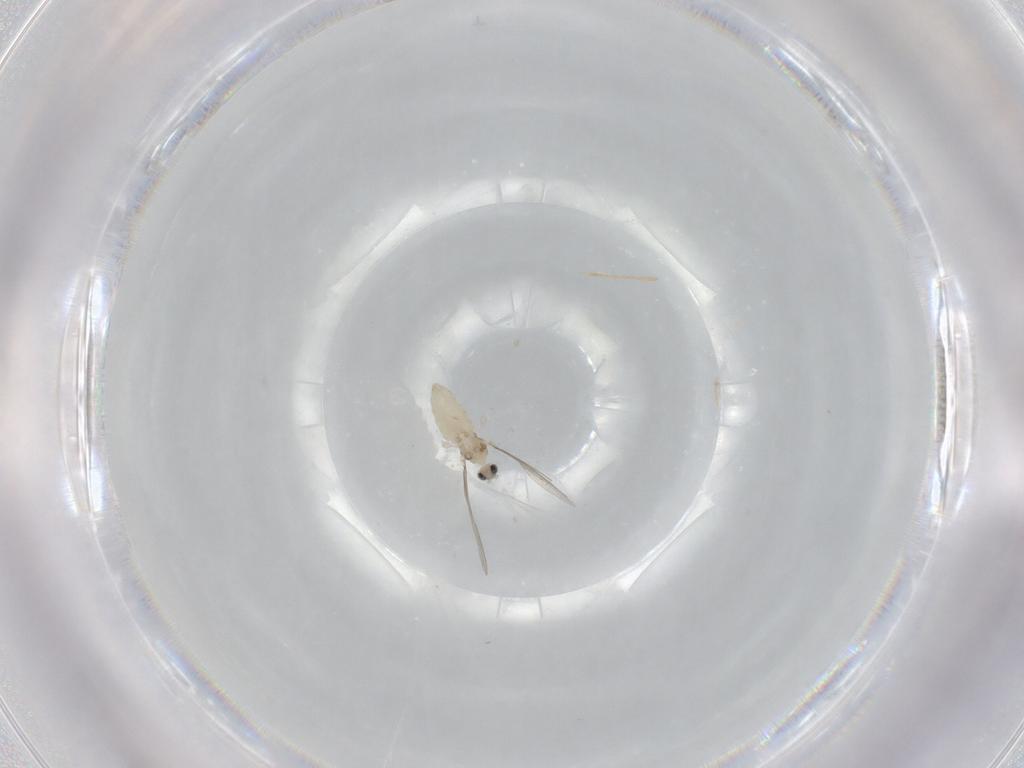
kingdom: Animalia
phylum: Arthropoda
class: Insecta
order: Diptera
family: Cecidomyiidae
